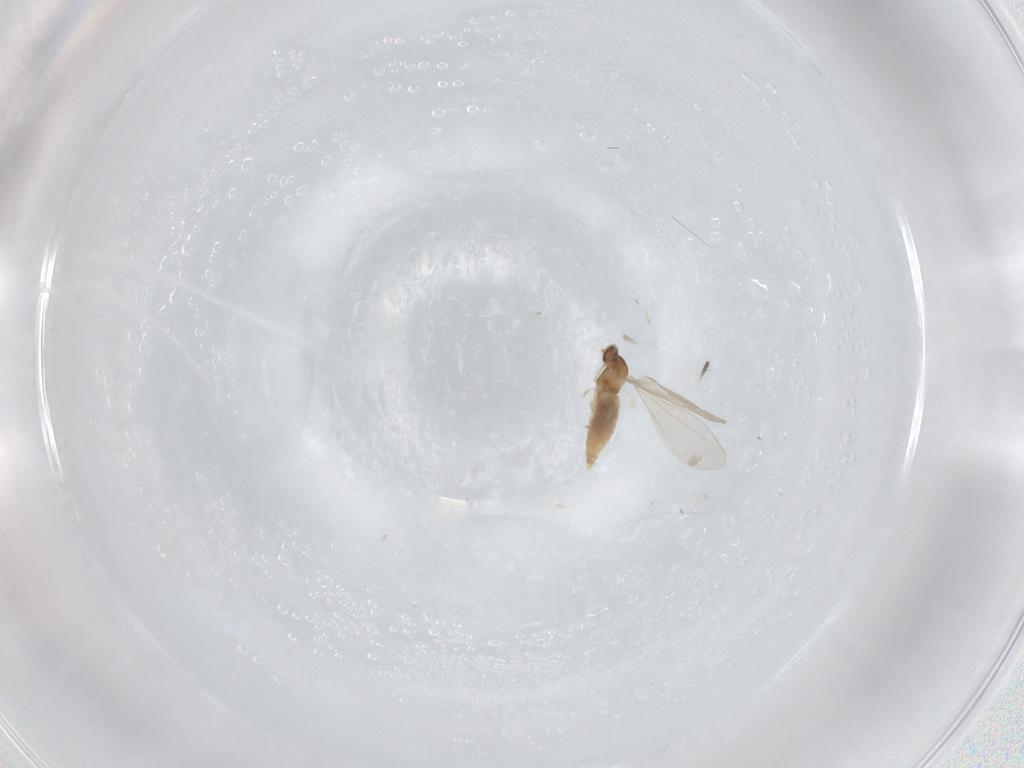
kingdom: Animalia
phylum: Arthropoda
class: Insecta
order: Diptera
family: Cecidomyiidae
